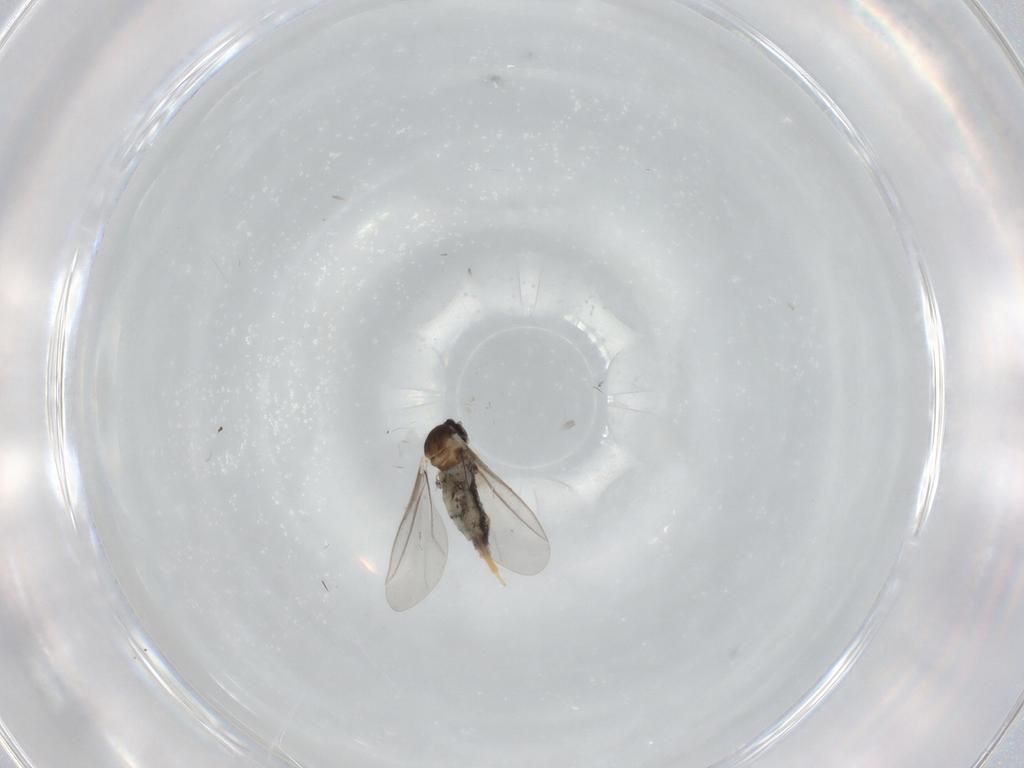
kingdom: Animalia
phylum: Arthropoda
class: Insecta
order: Diptera
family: Cecidomyiidae
